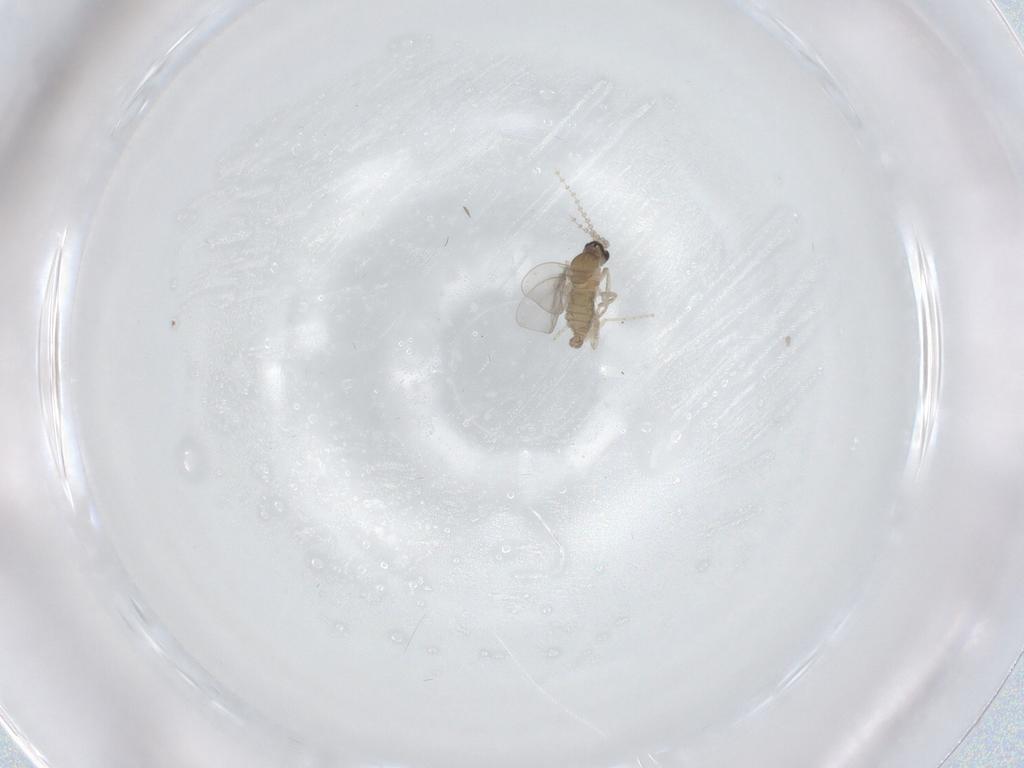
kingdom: Animalia
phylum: Arthropoda
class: Insecta
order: Diptera
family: Cecidomyiidae
